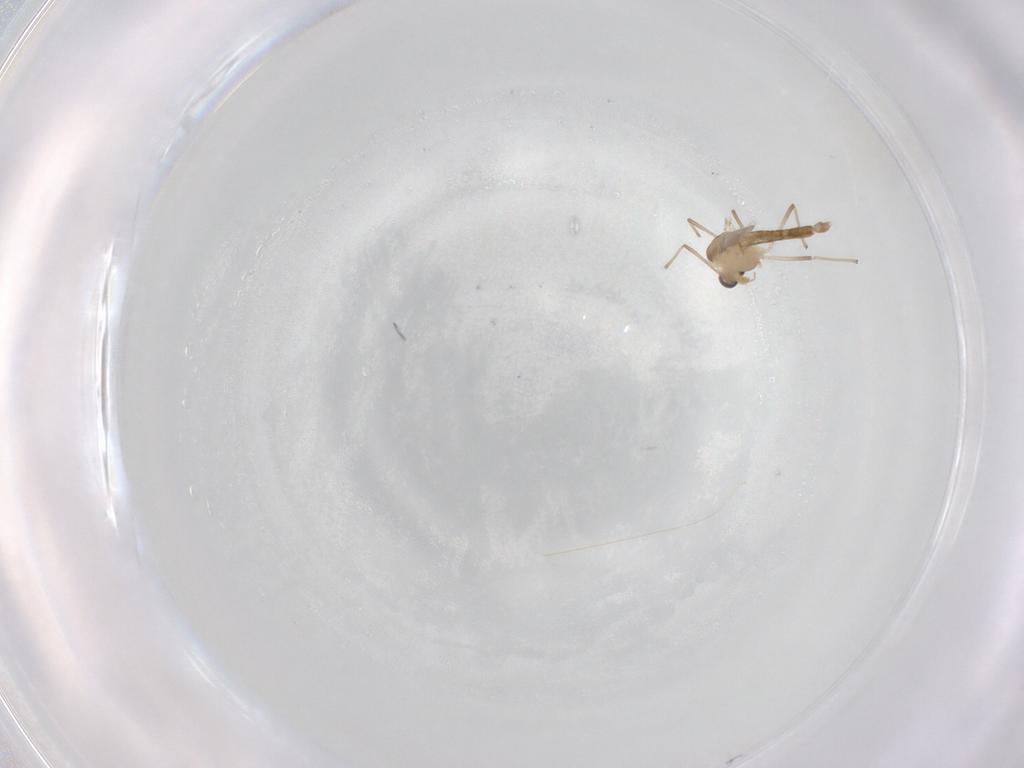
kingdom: Animalia
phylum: Arthropoda
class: Insecta
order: Diptera
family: Chironomidae
